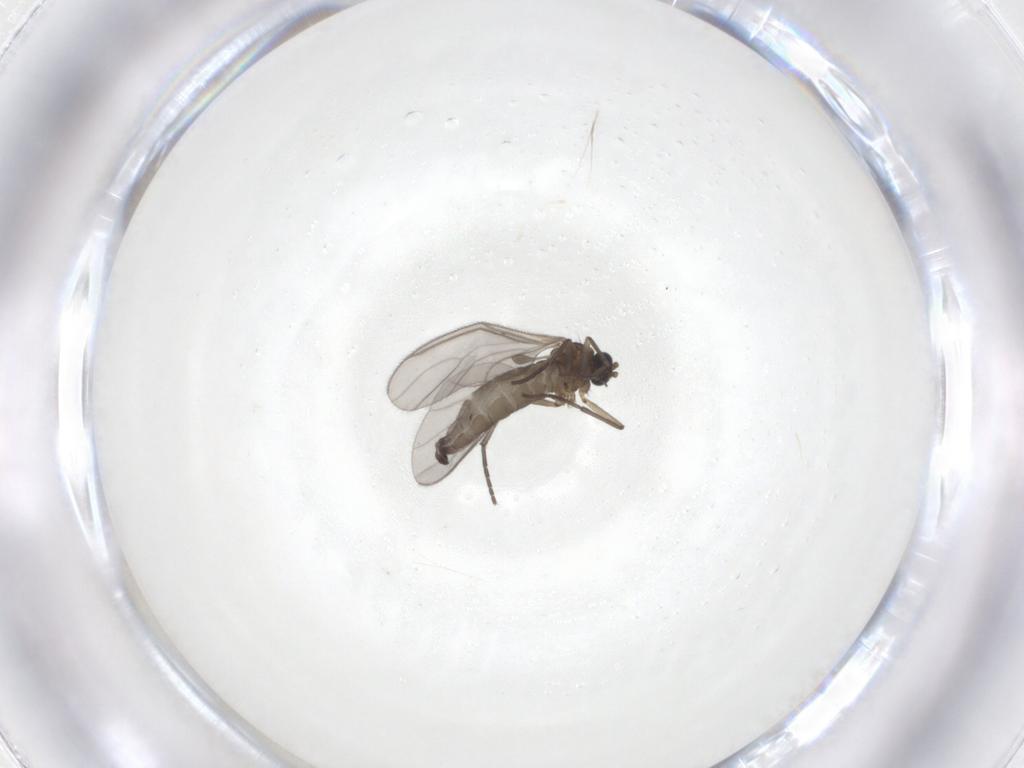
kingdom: Animalia
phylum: Arthropoda
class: Insecta
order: Diptera
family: Sciaridae
